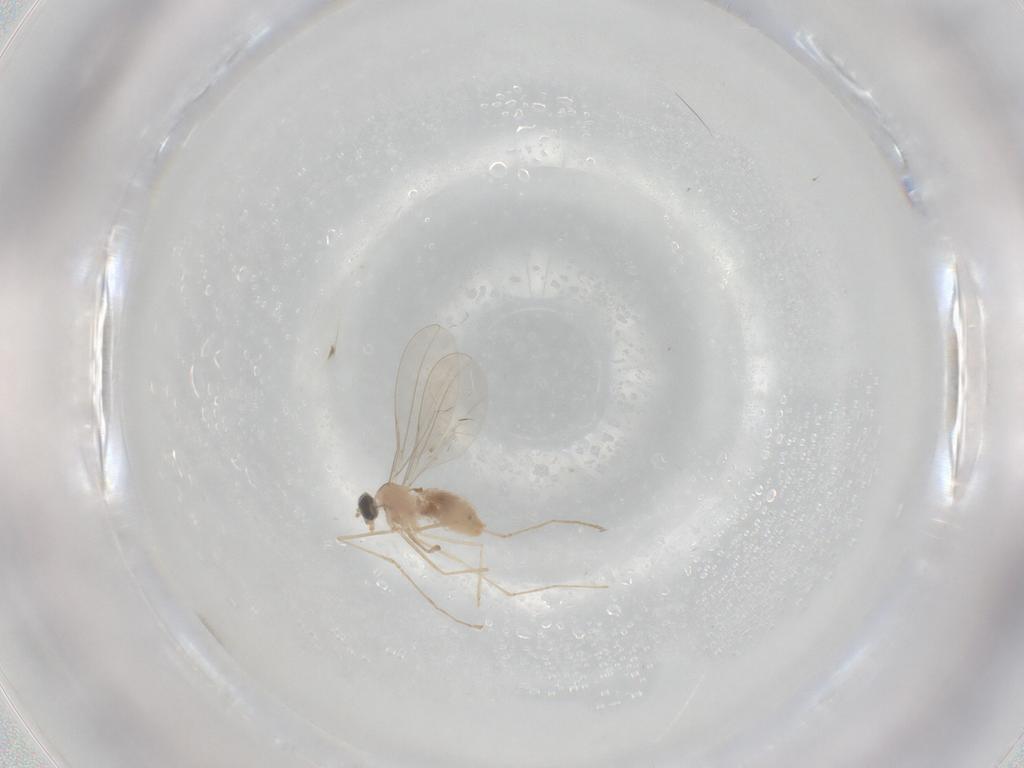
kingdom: Animalia
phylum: Arthropoda
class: Insecta
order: Diptera
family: Cecidomyiidae
